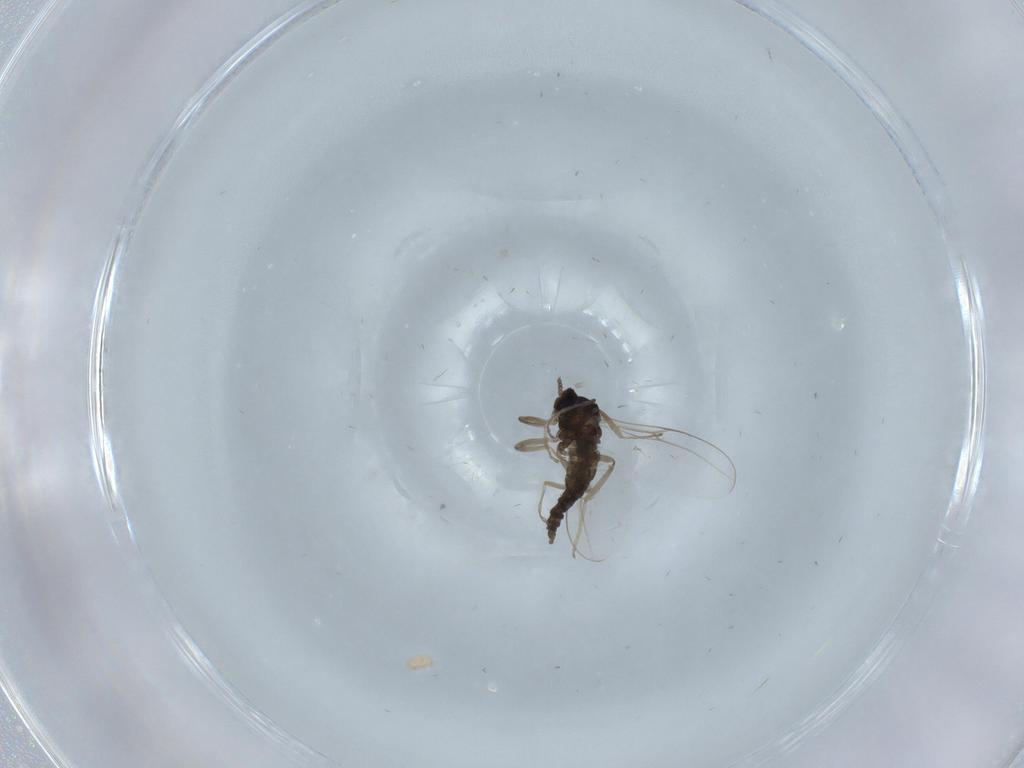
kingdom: Animalia
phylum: Arthropoda
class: Insecta
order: Diptera
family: Cecidomyiidae
